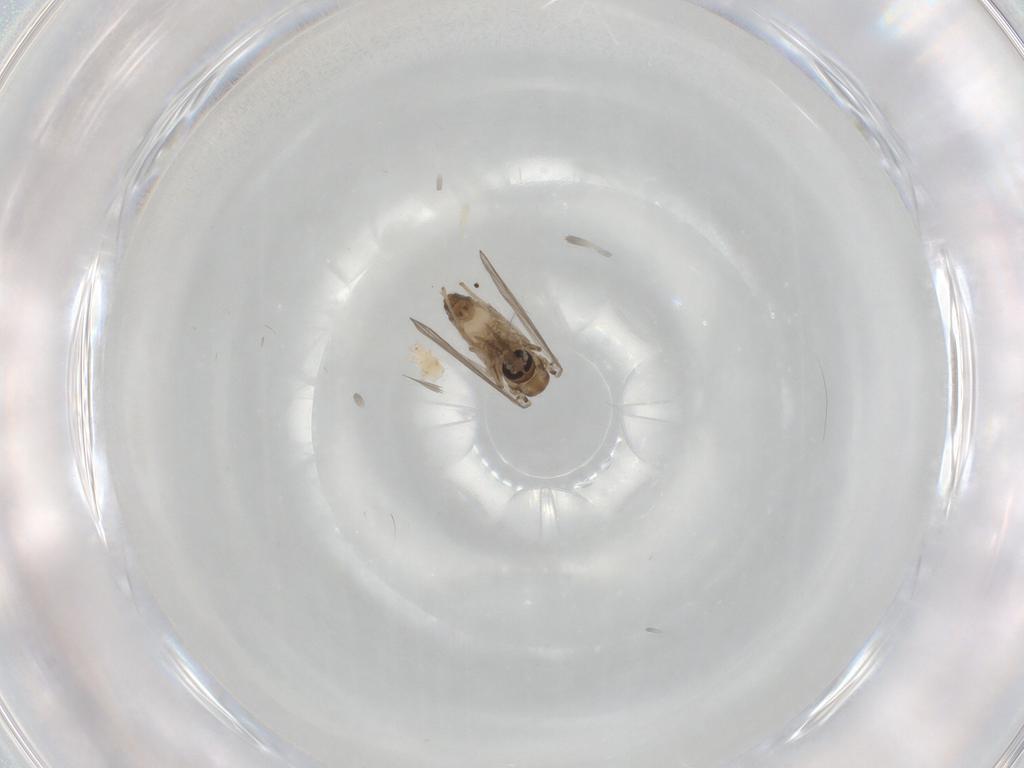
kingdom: Animalia
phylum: Arthropoda
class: Insecta
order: Diptera
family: Psychodidae
